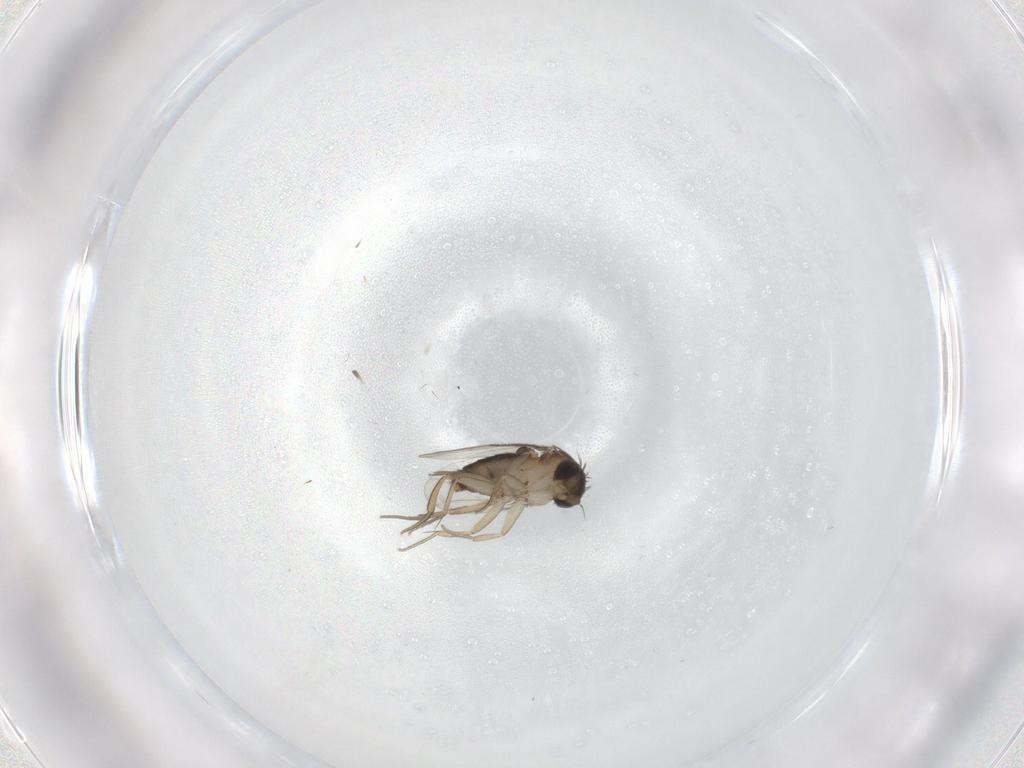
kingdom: Animalia
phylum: Arthropoda
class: Insecta
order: Diptera
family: Phoridae
